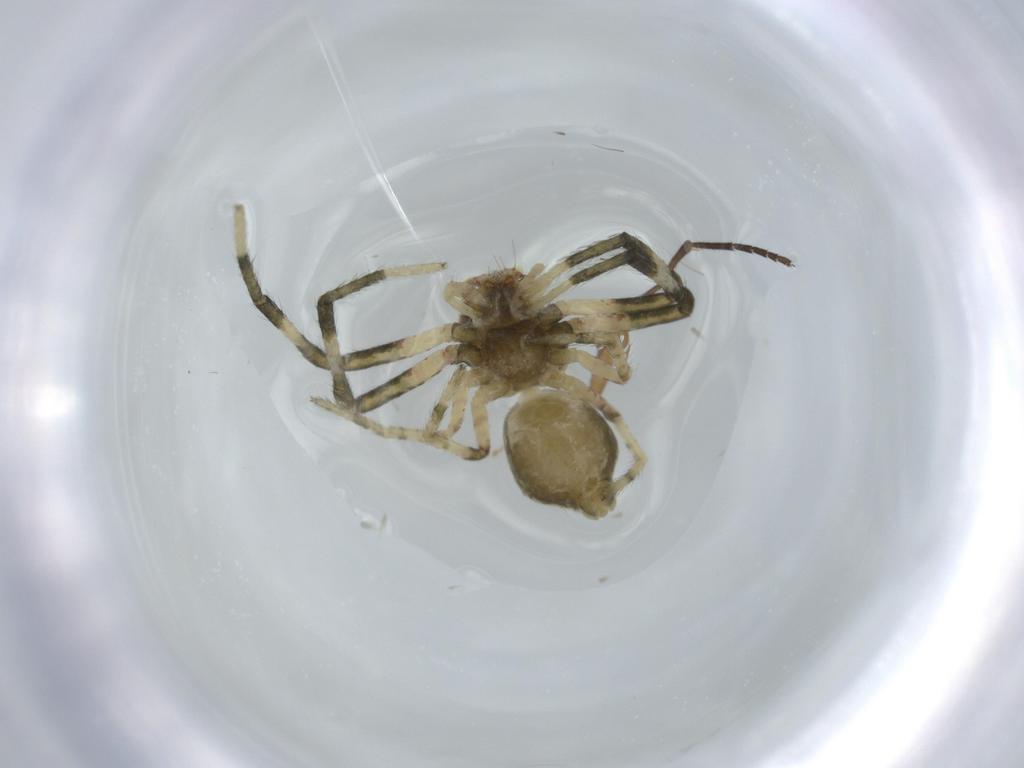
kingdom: Animalia
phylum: Arthropoda
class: Arachnida
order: Araneae
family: Thomisidae
